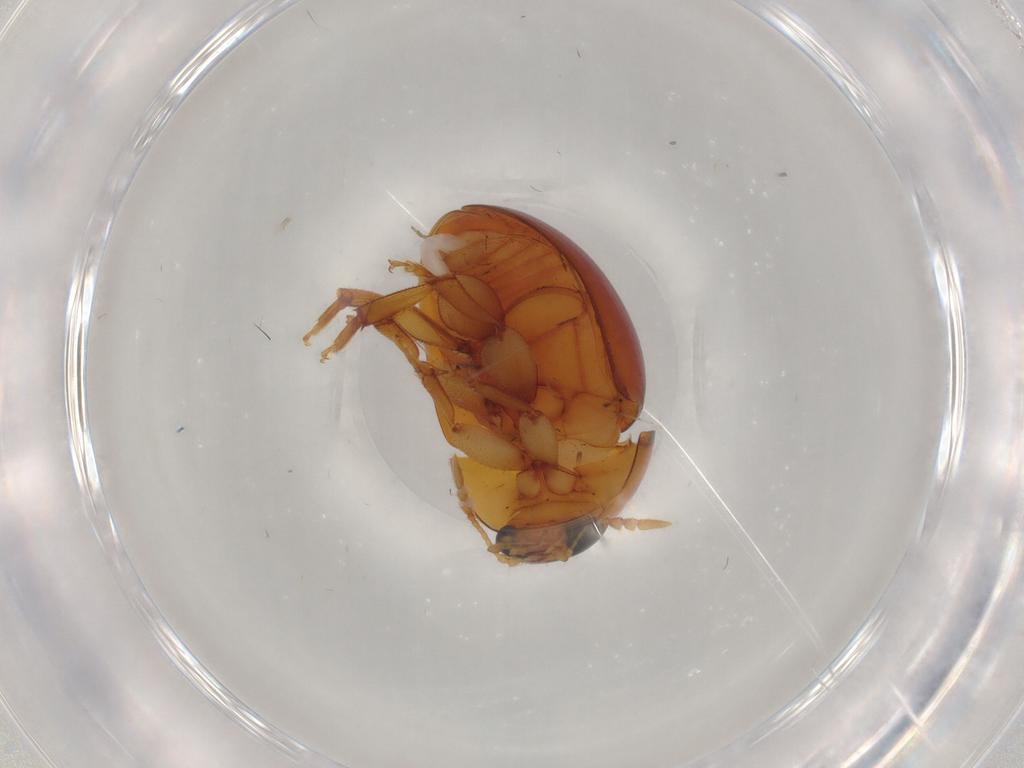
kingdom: Animalia
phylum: Arthropoda
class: Insecta
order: Coleoptera
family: Phalacridae
